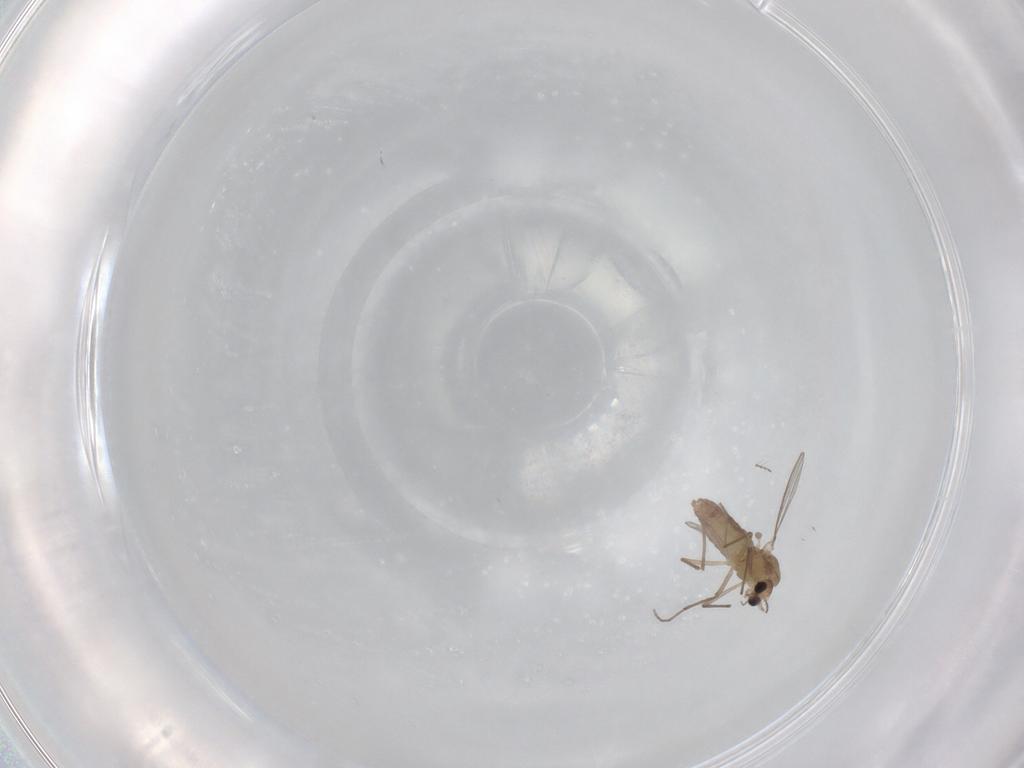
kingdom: Animalia
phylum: Arthropoda
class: Insecta
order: Diptera
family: Chironomidae
